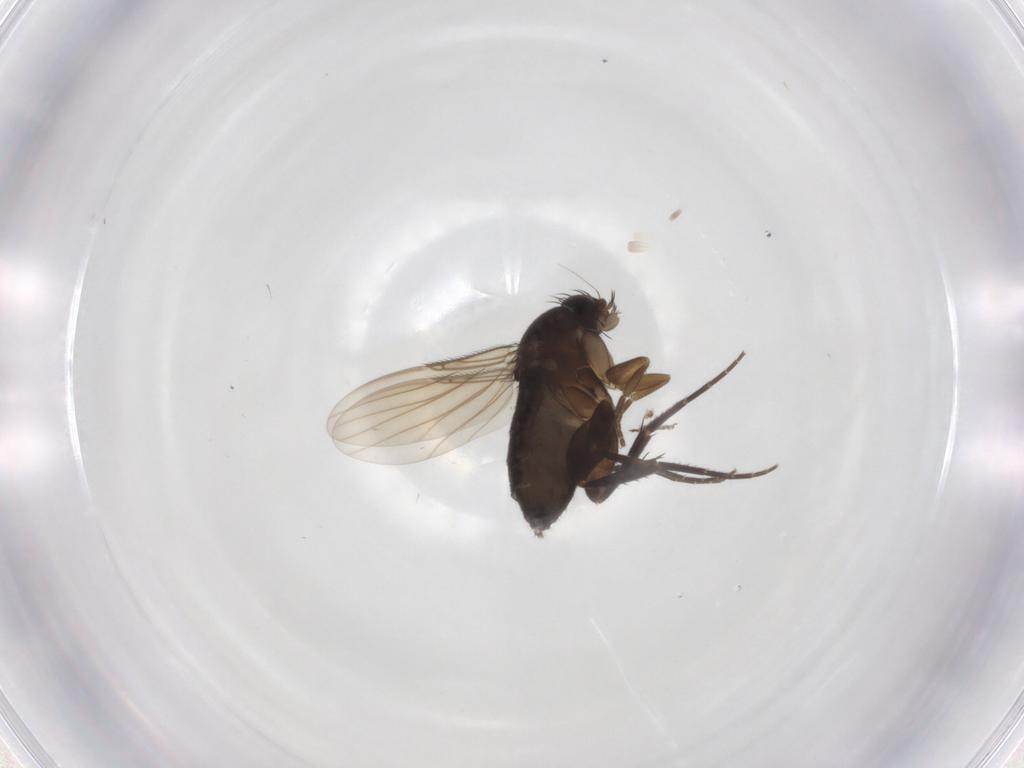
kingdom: Animalia
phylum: Arthropoda
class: Insecta
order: Diptera
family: Phoridae
